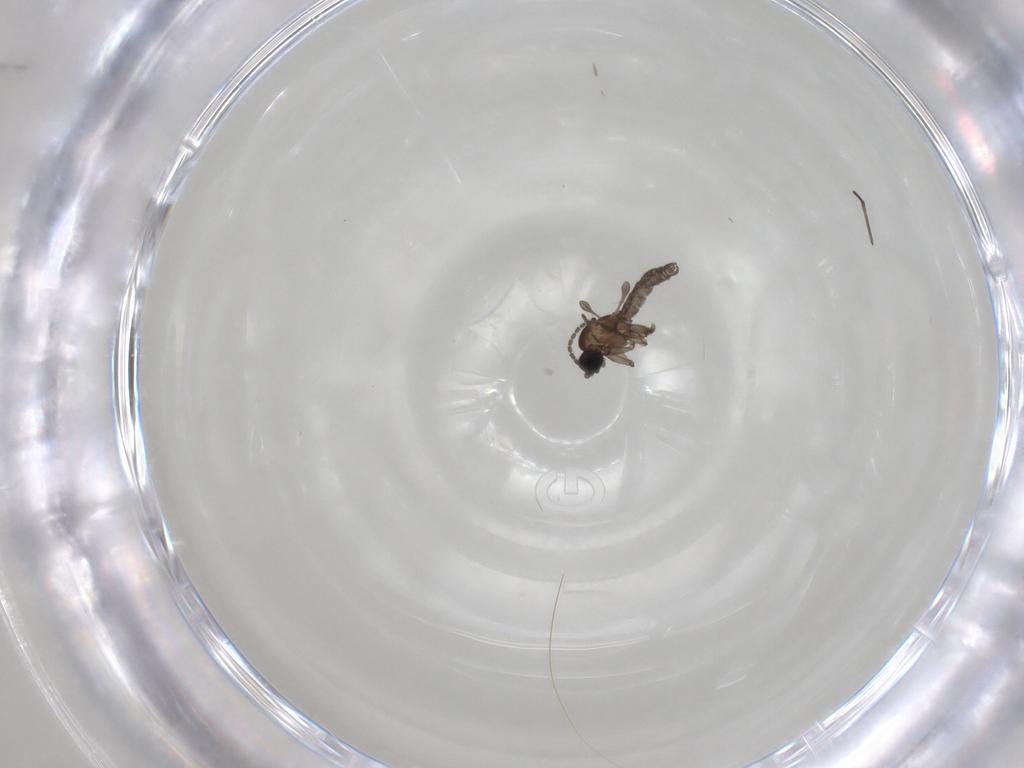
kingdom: Animalia
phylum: Arthropoda
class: Insecta
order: Diptera
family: Sciaridae
